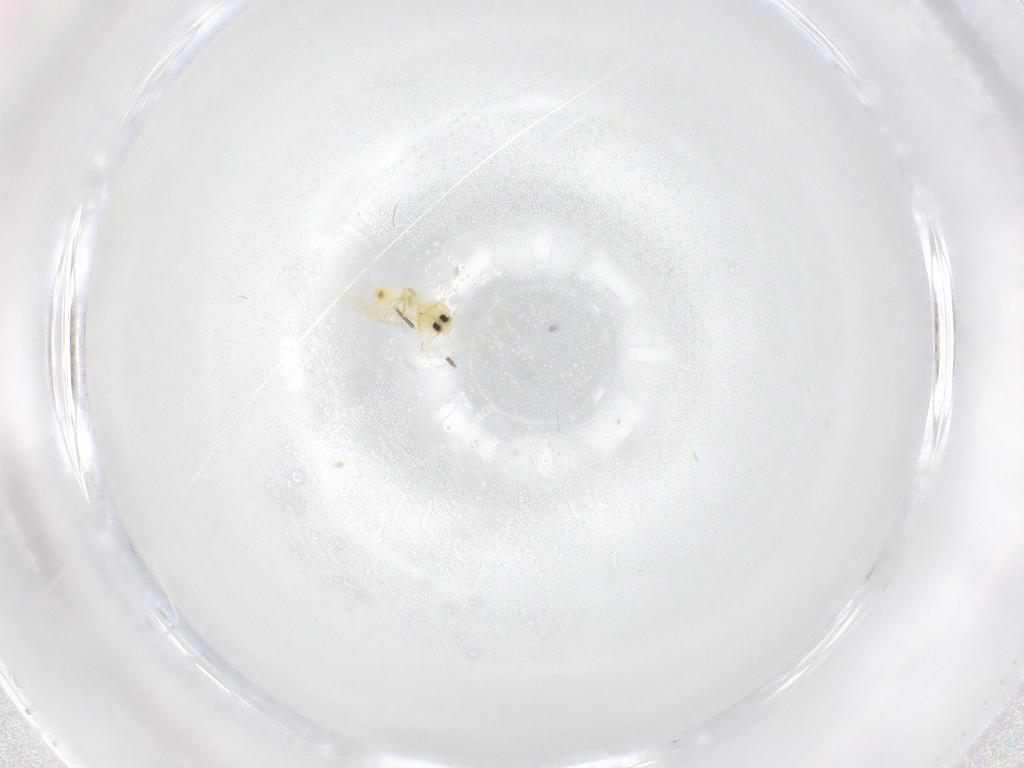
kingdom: Animalia
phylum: Arthropoda
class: Insecta
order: Hemiptera
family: Aleyrodidae
